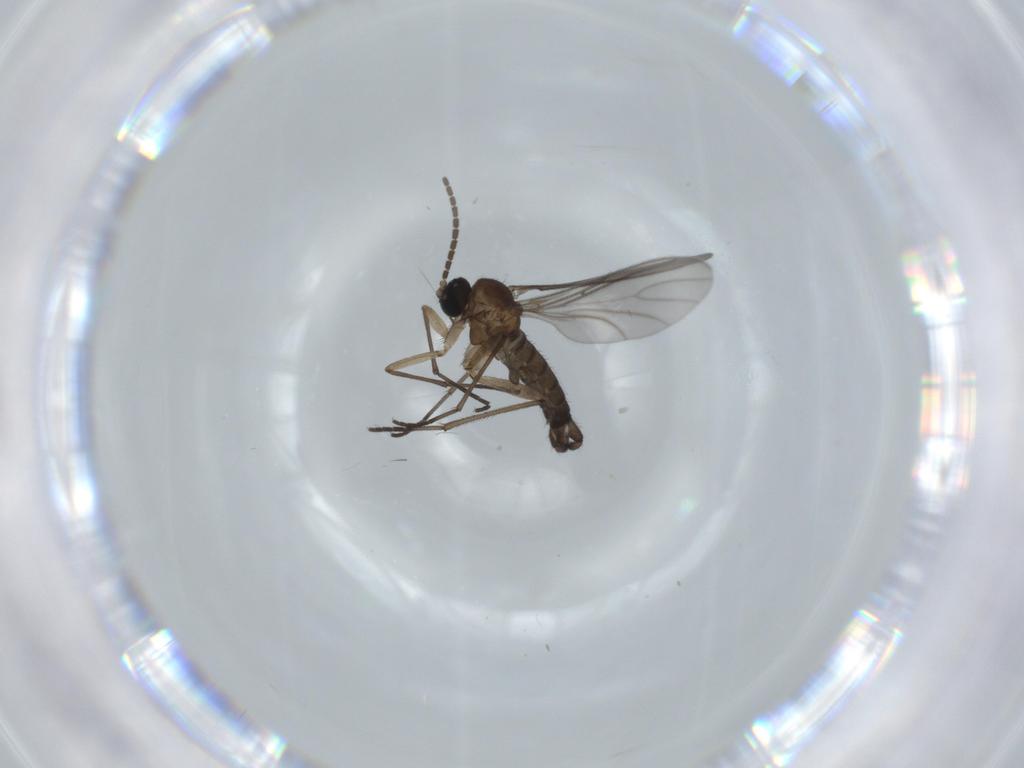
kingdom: Animalia
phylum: Arthropoda
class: Insecta
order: Diptera
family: Sciaridae
